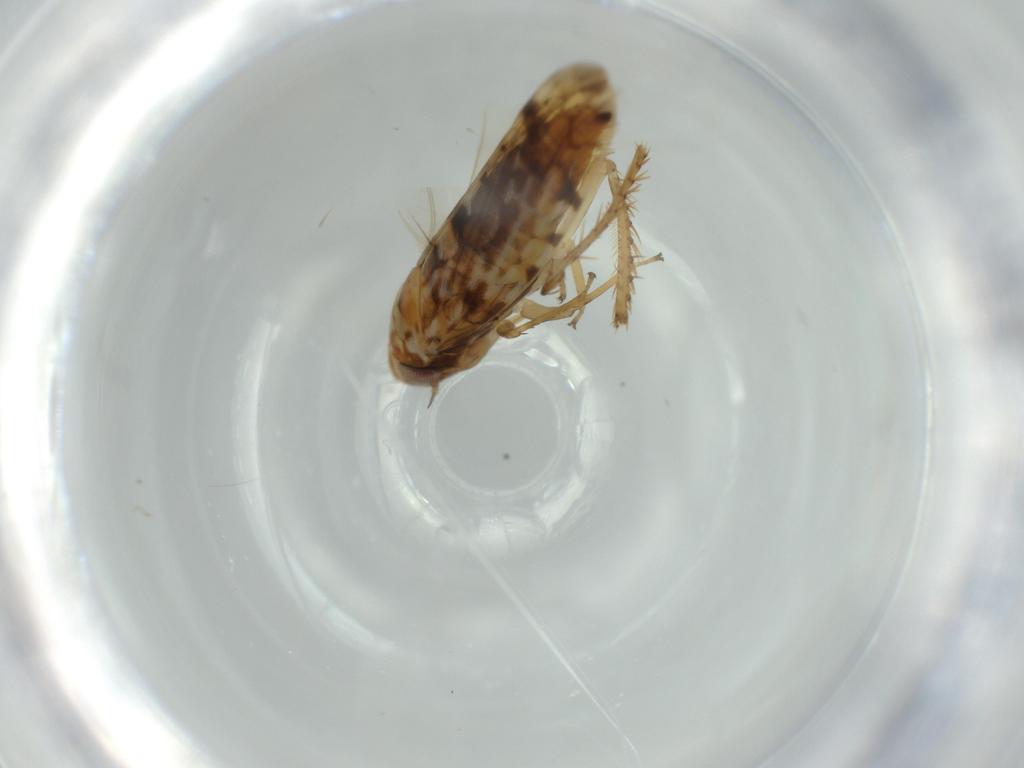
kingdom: Animalia
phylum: Arthropoda
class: Insecta
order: Hemiptera
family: Cicadellidae
